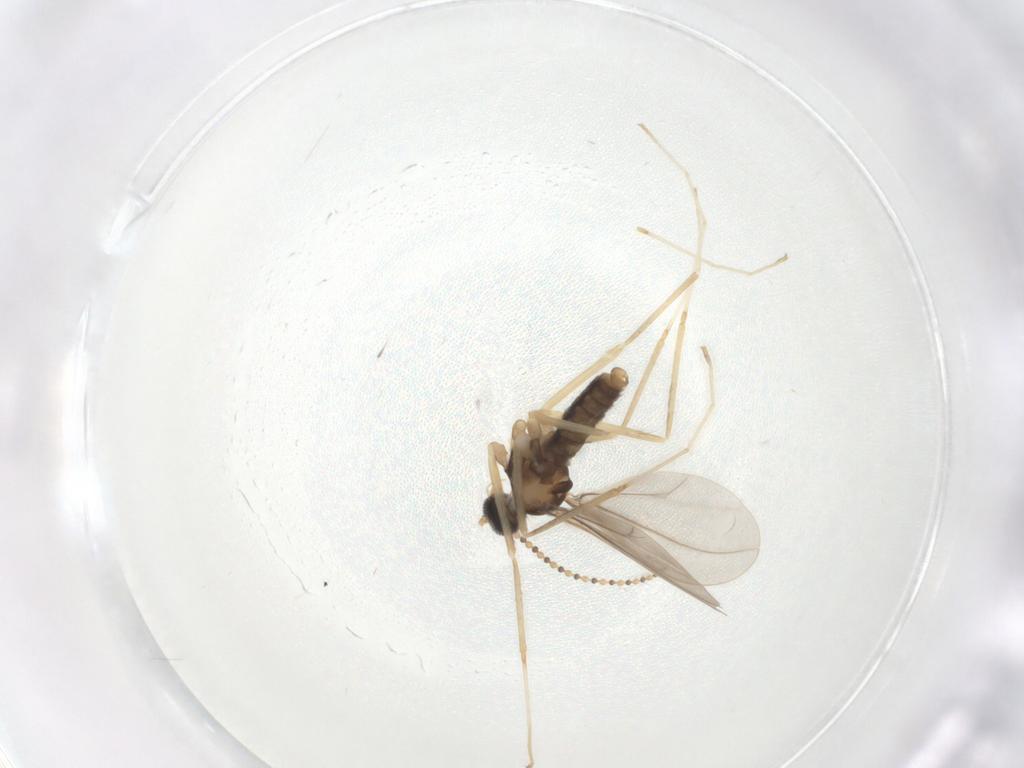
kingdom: Animalia
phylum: Arthropoda
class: Insecta
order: Diptera
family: Cecidomyiidae
